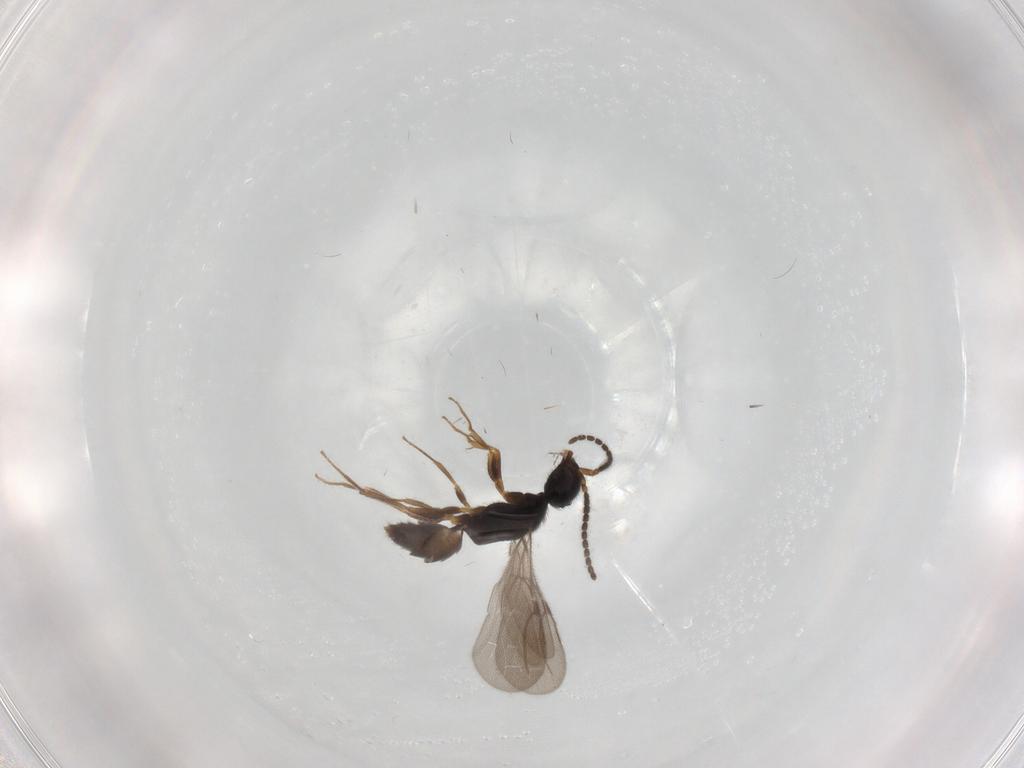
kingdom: Animalia
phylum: Arthropoda
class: Insecta
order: Hymenoptera
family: Bethylidae
